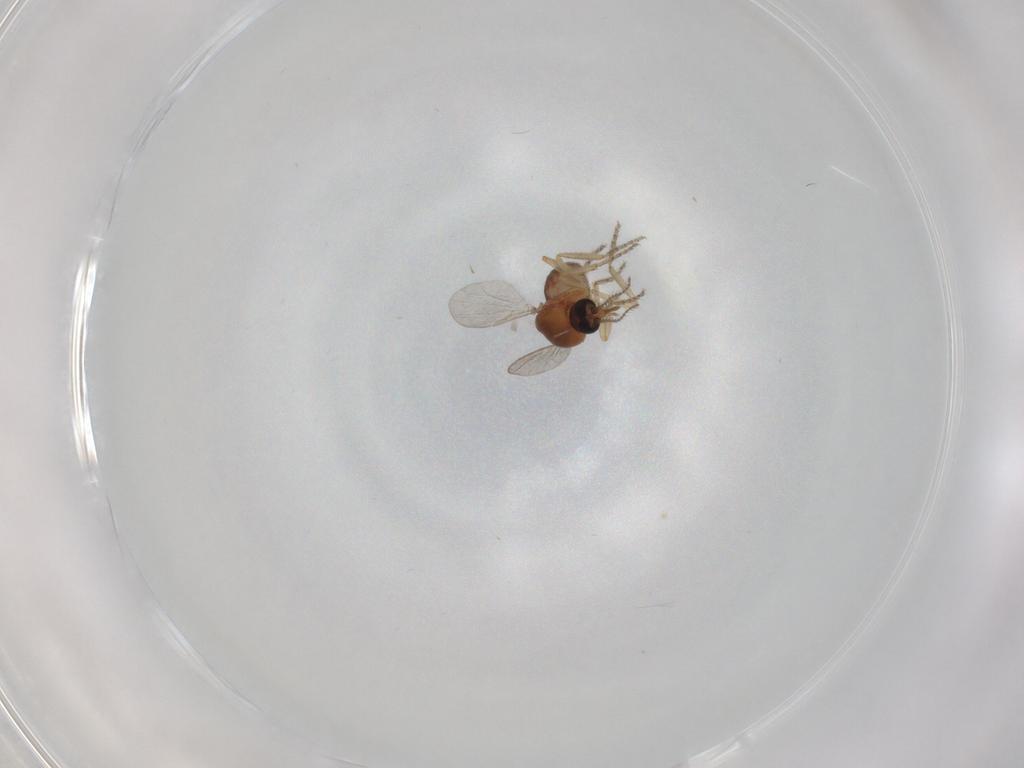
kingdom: Animalia
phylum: Arthropoda
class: Insecta
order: Diptera
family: Ceratopogonidae
